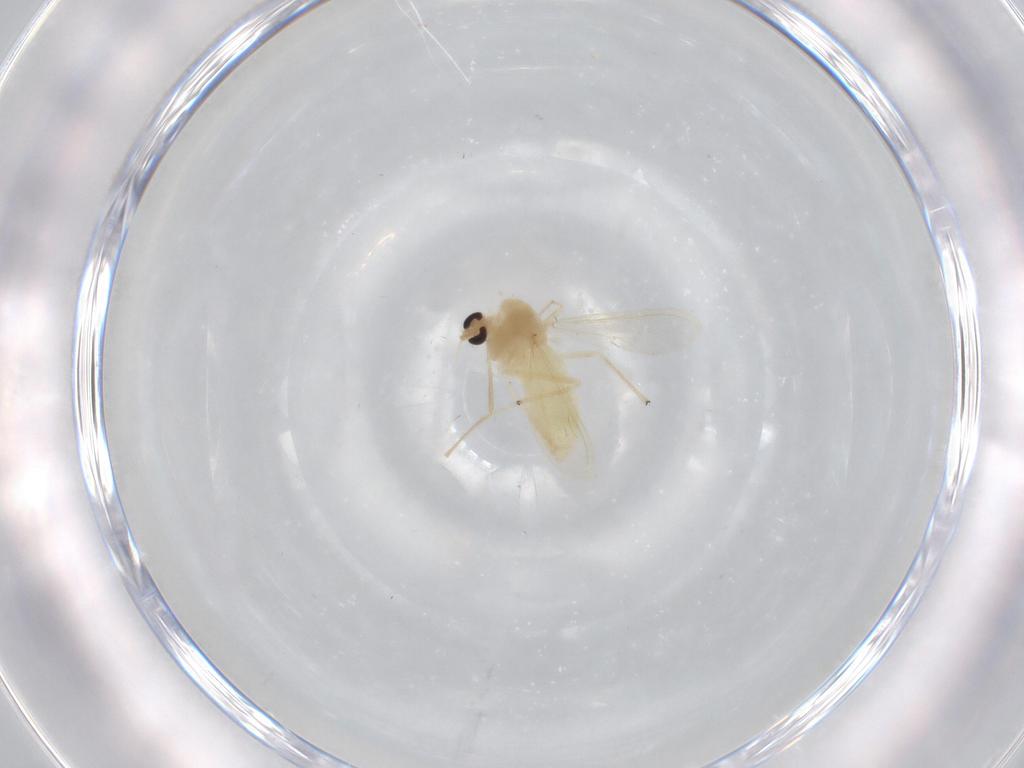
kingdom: Animalia
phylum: Arthropoda
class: Insecta
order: Diptera
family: Chironomidae
